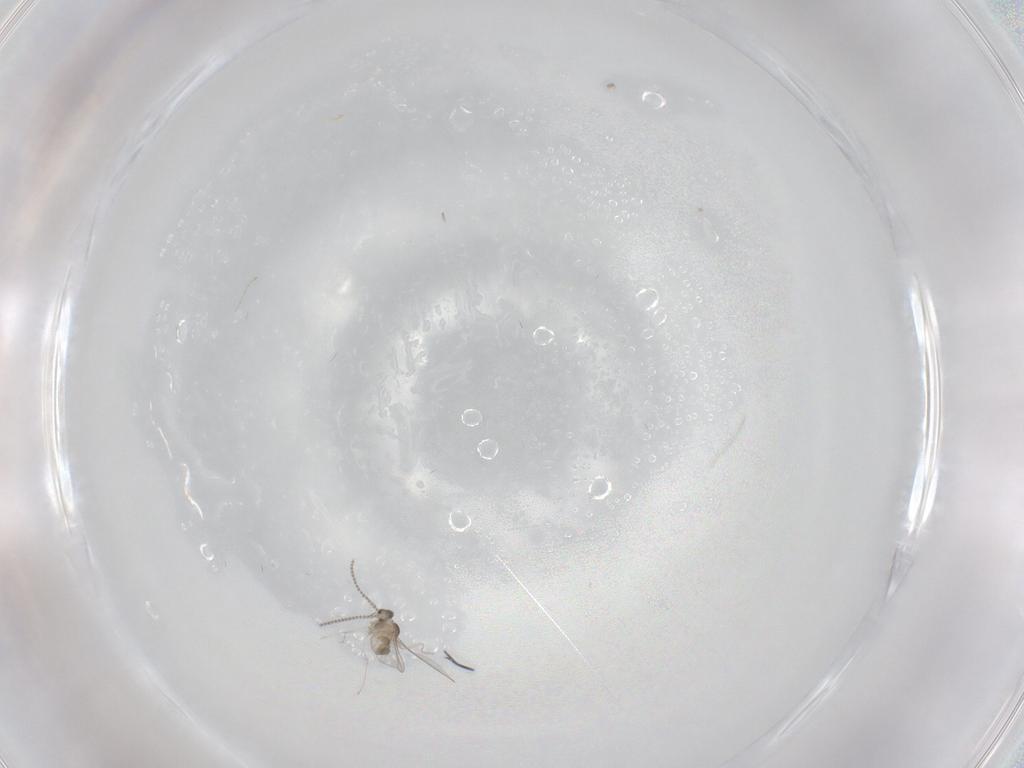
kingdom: Animalia
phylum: Arthropoda
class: Insecta
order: Diptera
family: Cecidomyiidae
